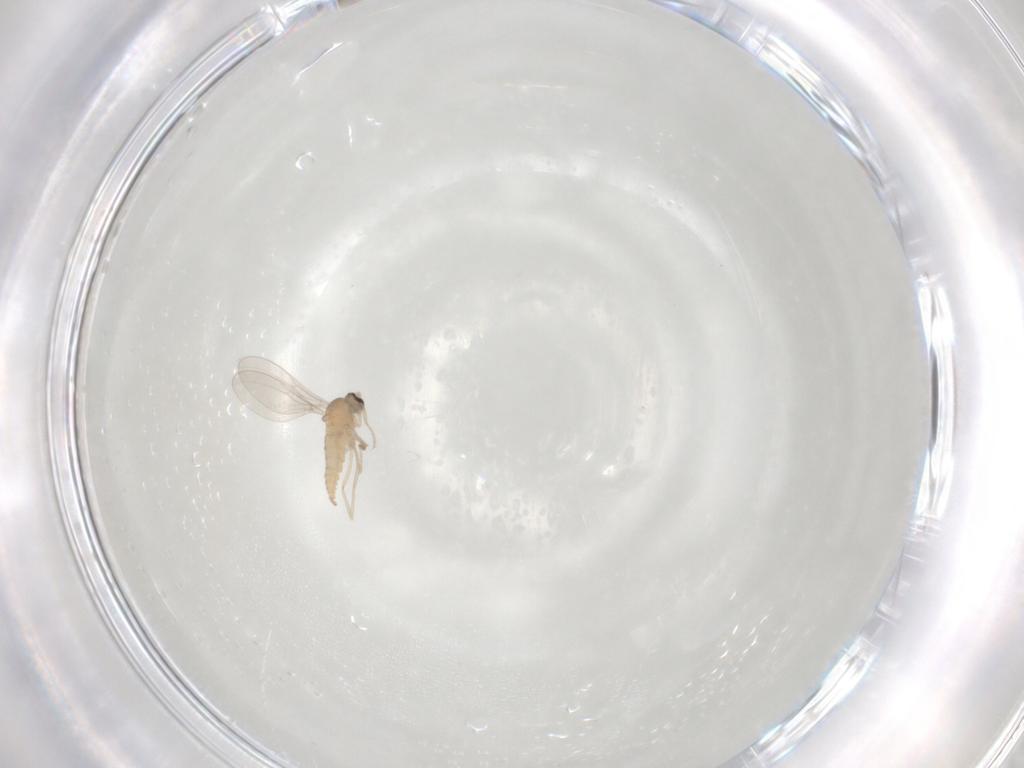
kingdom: Animalia
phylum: Arthropoda
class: Insecta
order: Diptera
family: Cecidomyiidae
